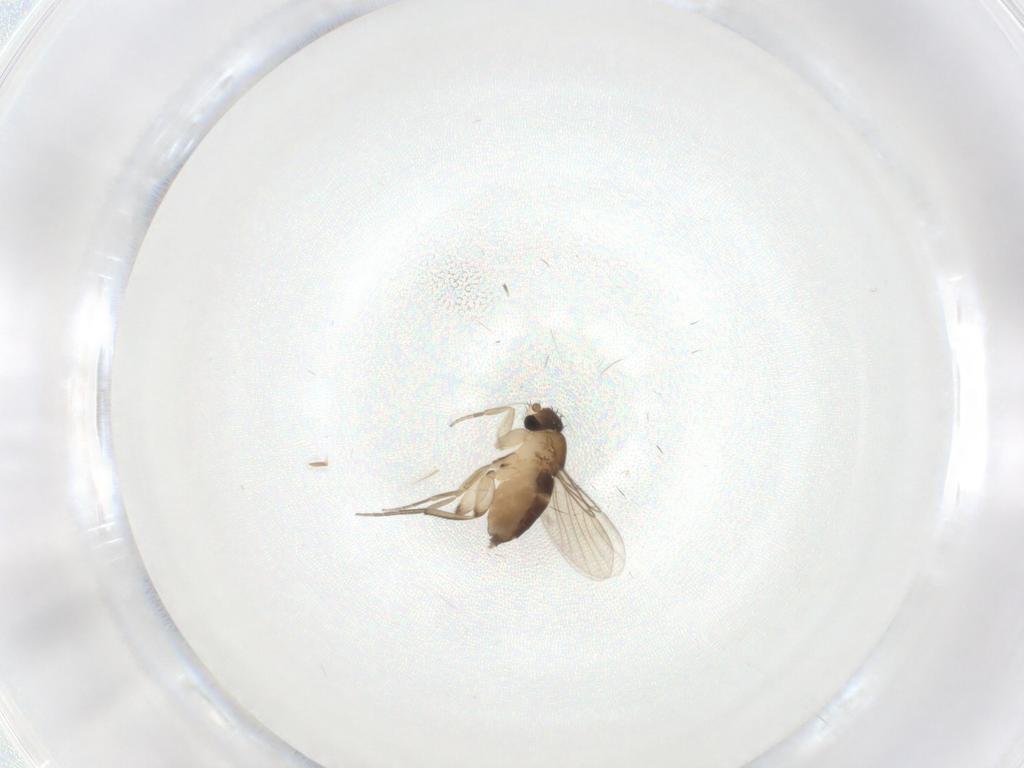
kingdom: Animalia
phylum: Arthropoda
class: Insecta
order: Diptera
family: Phoridae
